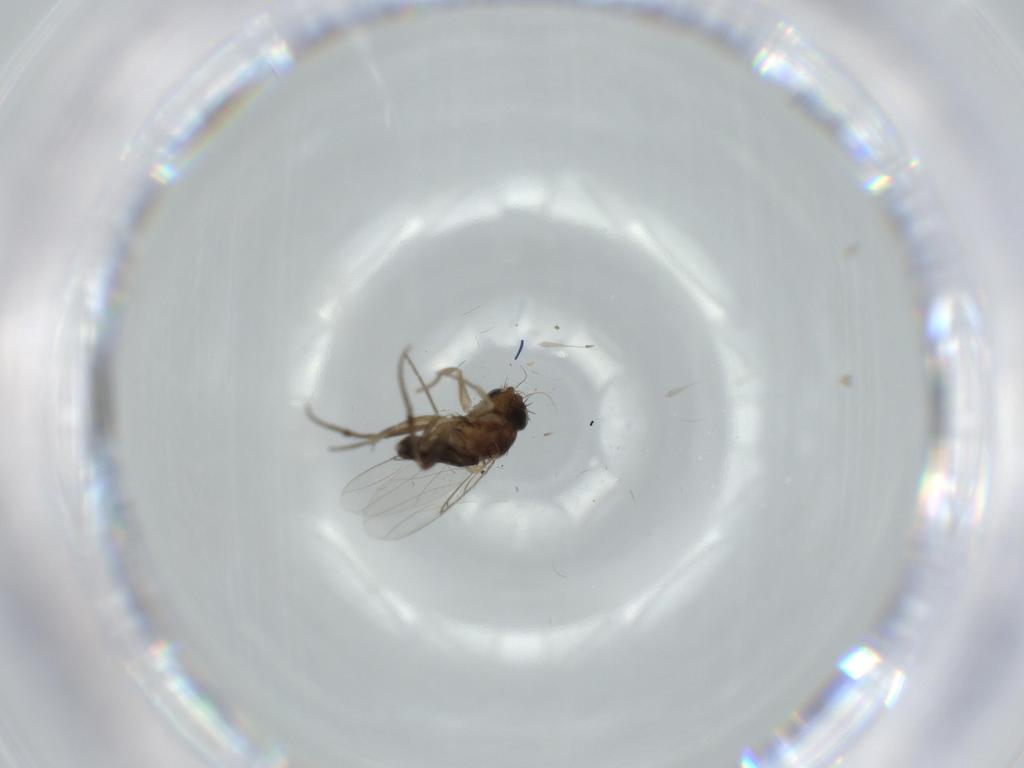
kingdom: Animalia
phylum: Arthropoda
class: Insecta
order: Diptera
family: Phoridae
